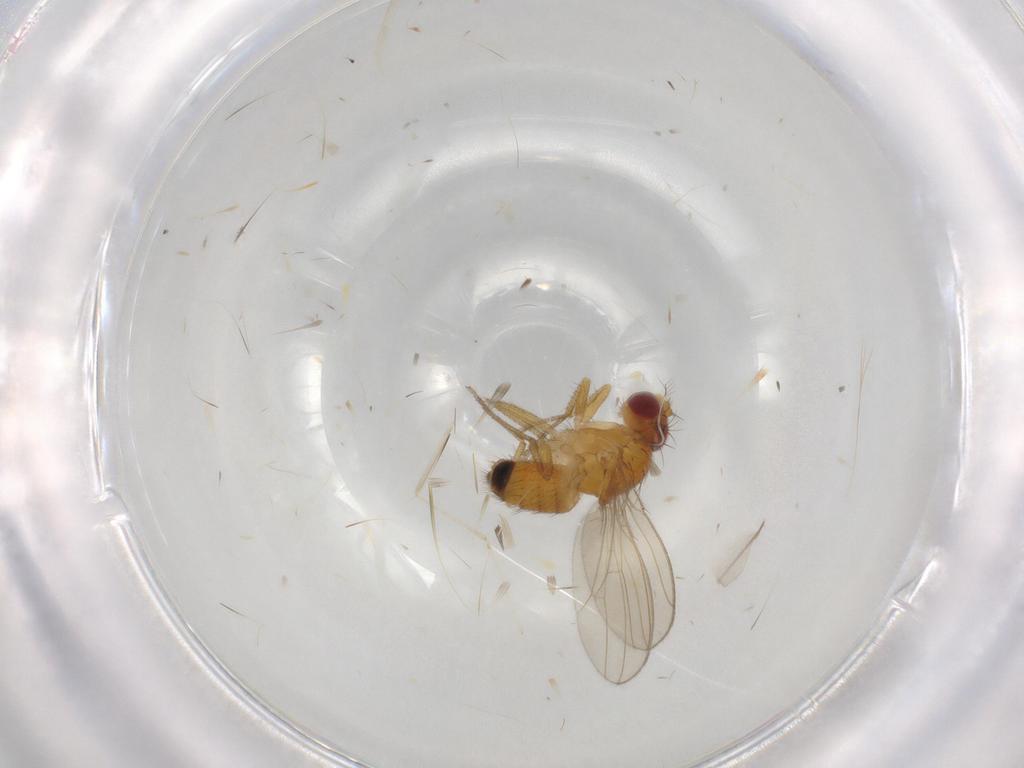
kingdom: Animalia
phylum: Arthropoda
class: Insecta
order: Diptera
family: Drosophilidae
